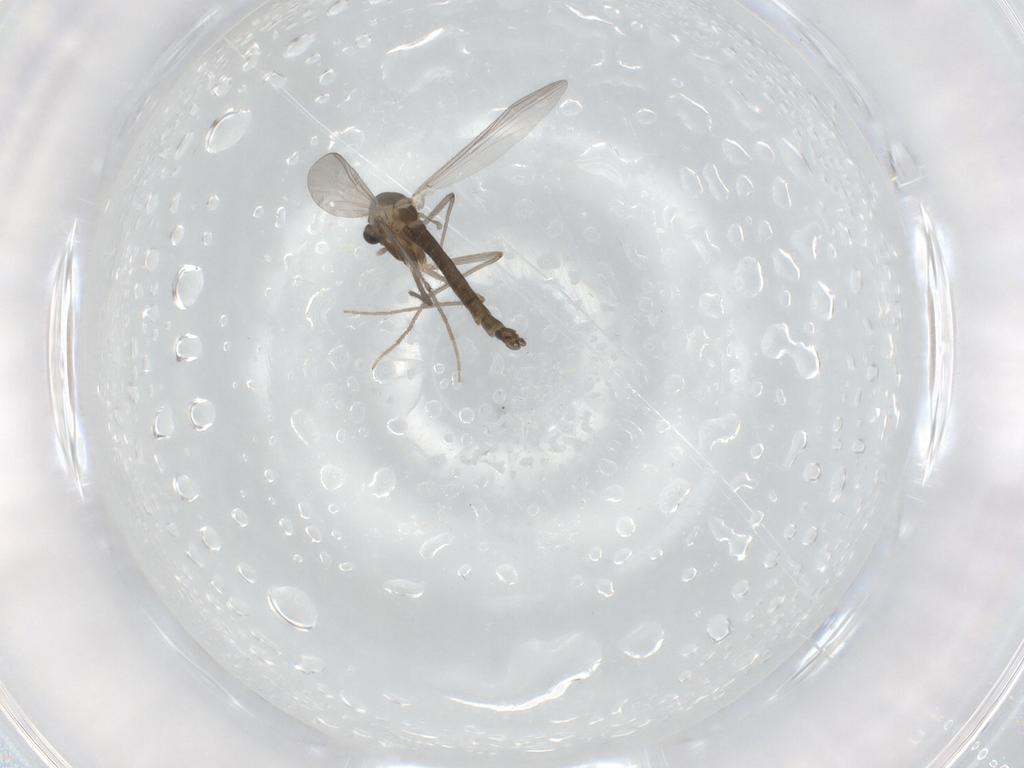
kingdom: Animalia
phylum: Arthropoda
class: Insecta
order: Diptera
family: Chironomidae
